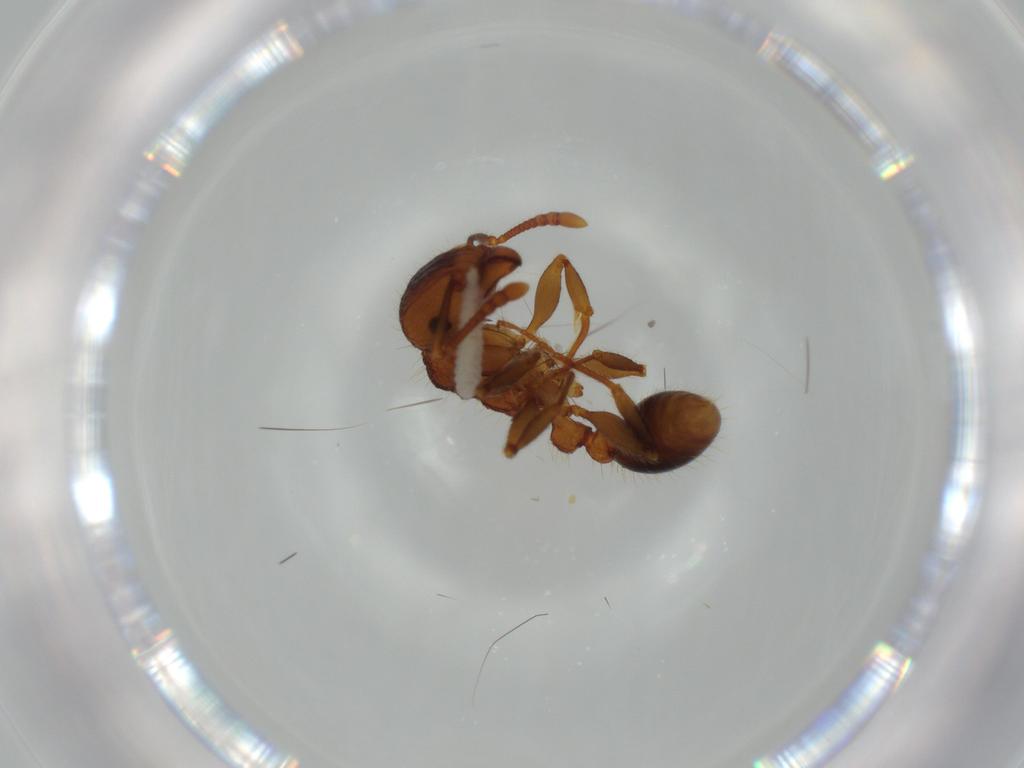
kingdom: Animalia
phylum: Arthropoda
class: Insecta
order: Hymenoptera
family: Formicidae
